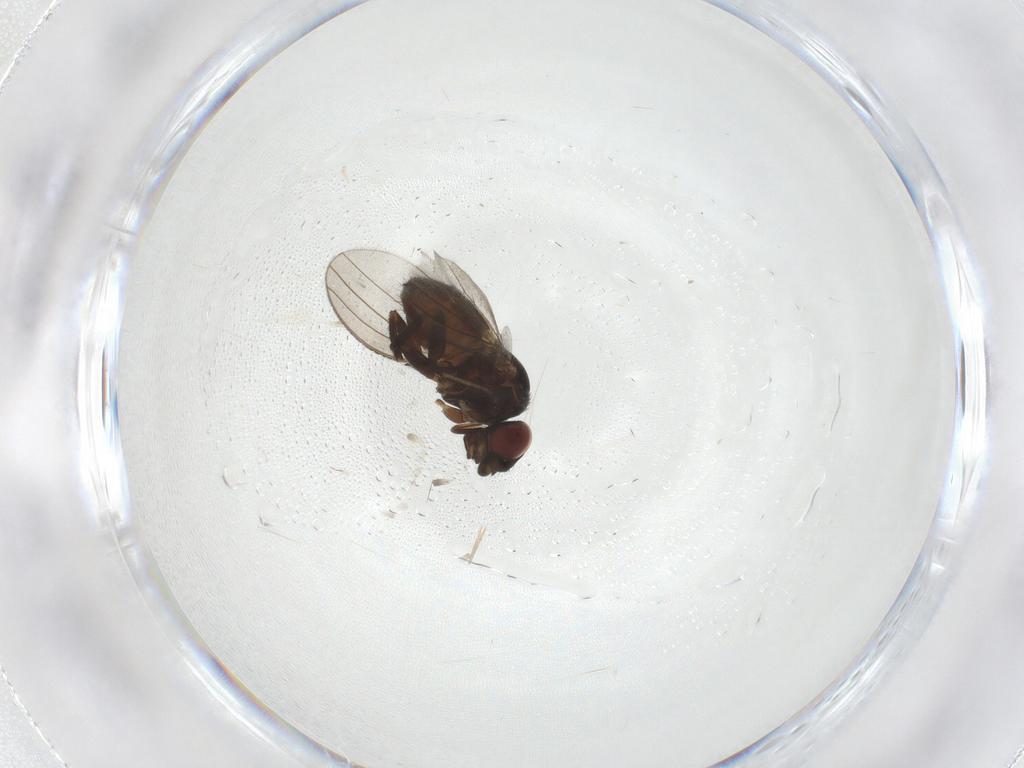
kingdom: Animalia
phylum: Arthropoda
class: Insecta
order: Diptera
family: Milichiidae
